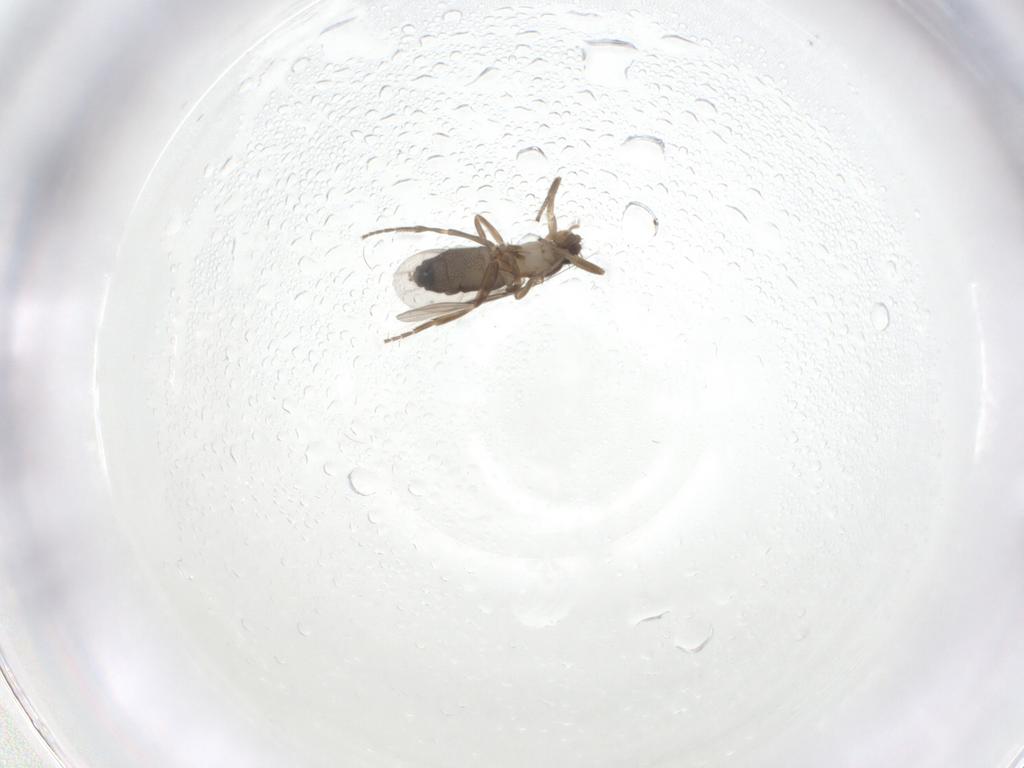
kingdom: Animalia
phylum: Arthropoda
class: Insecta
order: Diptera
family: Phoridae
